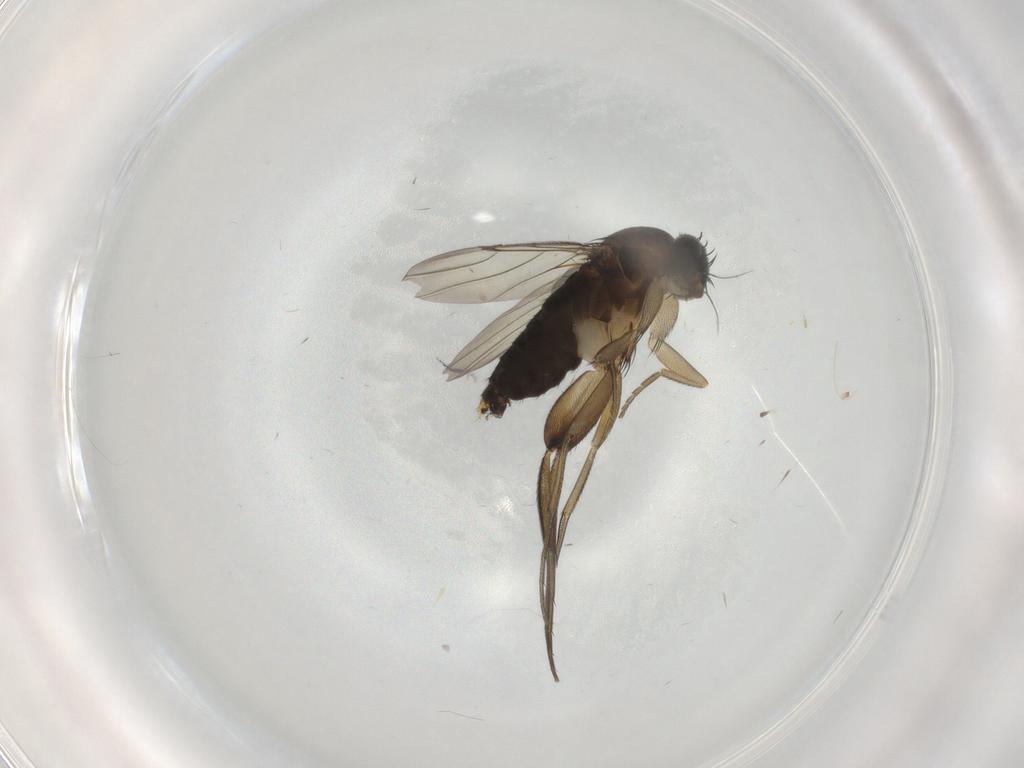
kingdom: Animalia
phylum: Arthropoda
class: Insecta
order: Diptera
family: Phoridae
